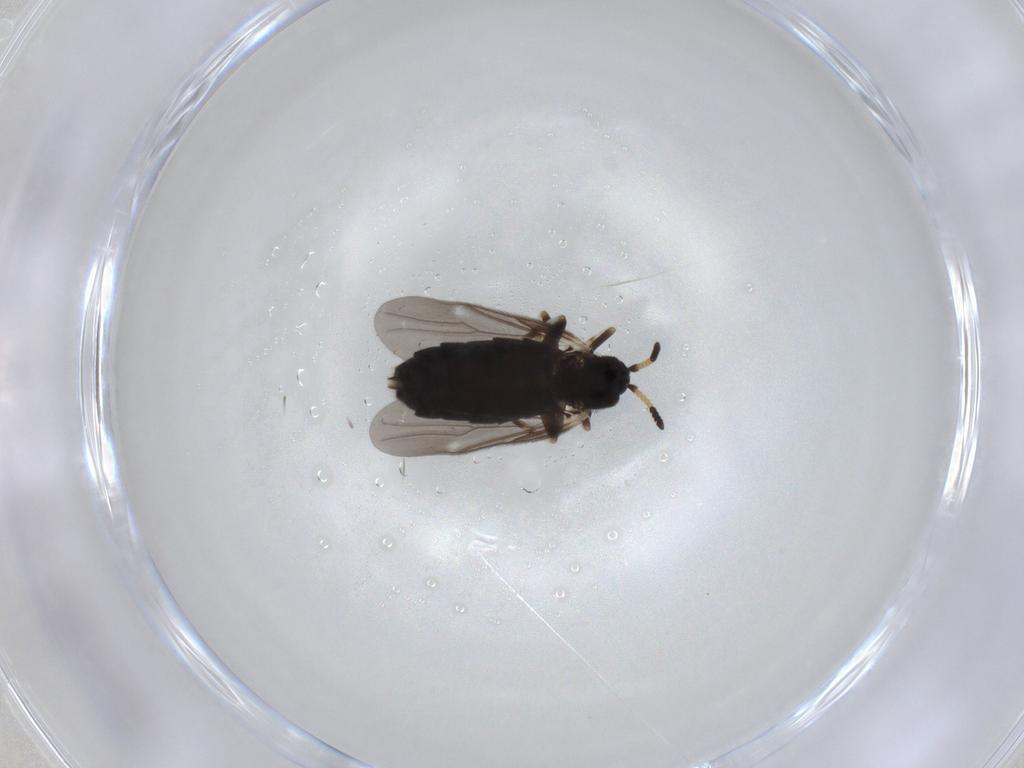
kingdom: Animalia
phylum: Arthropoda
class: Insecta
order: Diptera
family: Scatopsidae
